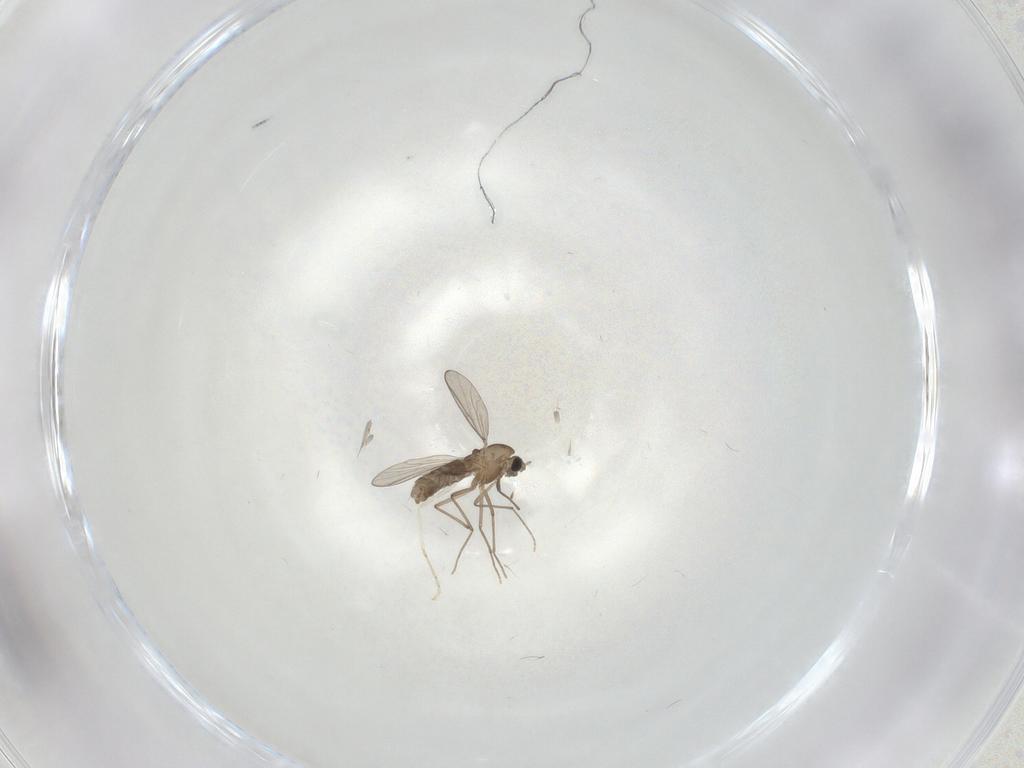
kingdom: Animalia
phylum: Arthropoda
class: Insecta
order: Diptera
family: Chironomidae
